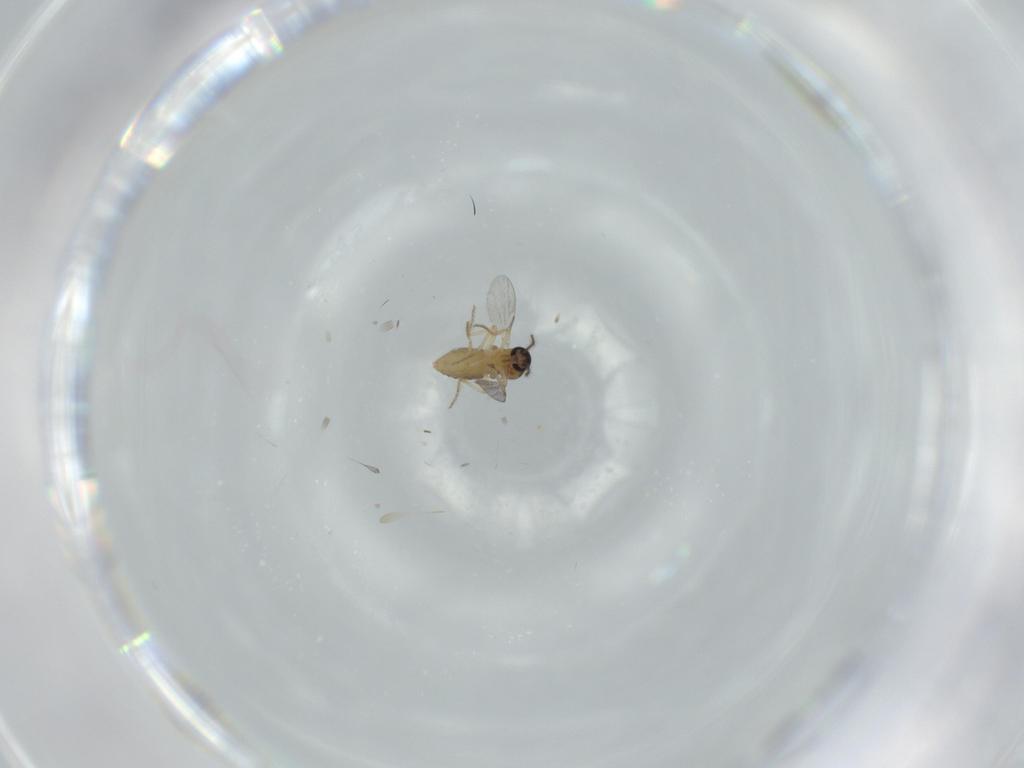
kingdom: Animalia
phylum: Arthropoda
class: Insecta
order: Diptera
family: Ceratopogonidae
